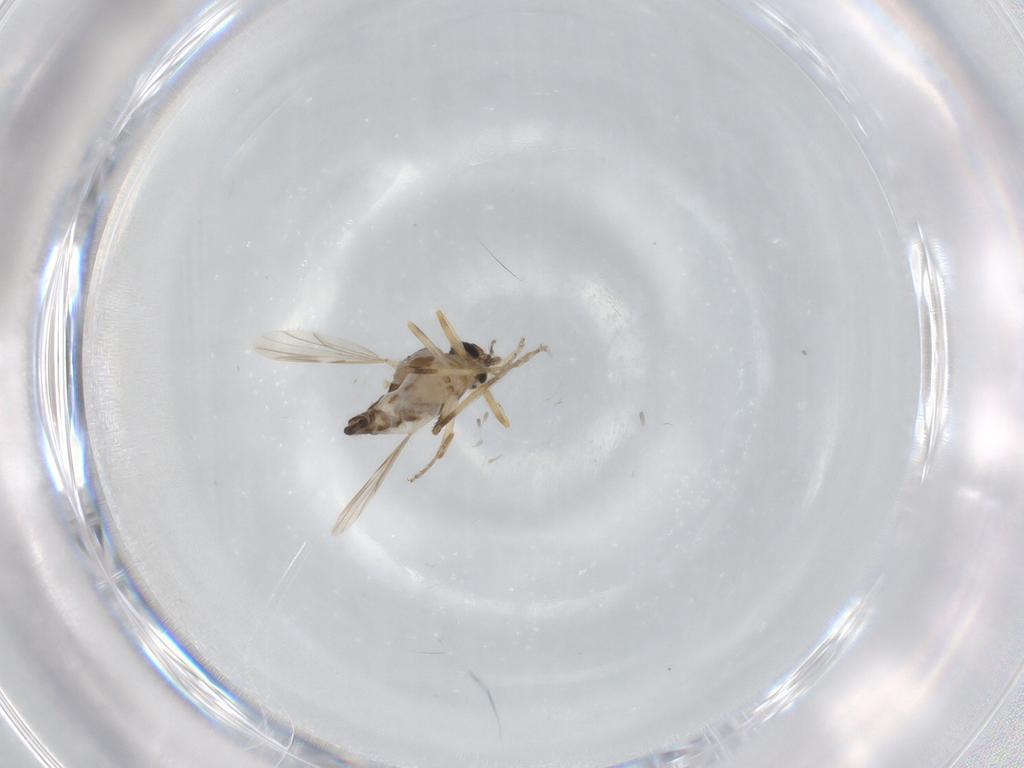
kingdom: Animalia
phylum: Arthropoda
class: Insecta
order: Diptera
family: Ceratopogonidae
